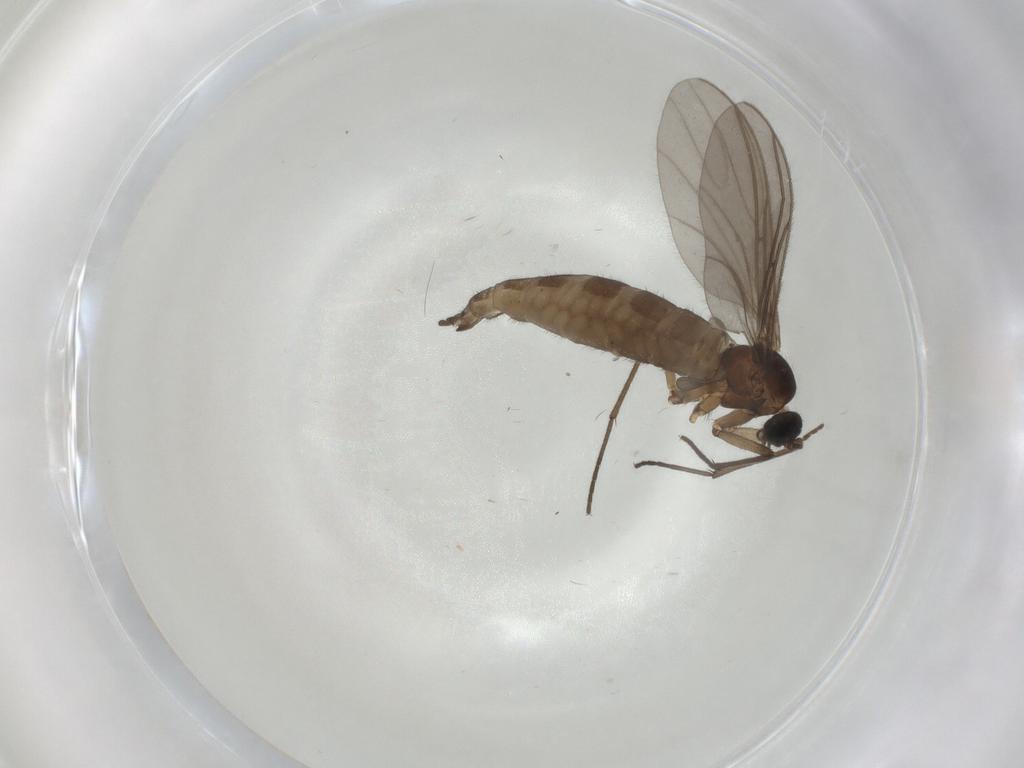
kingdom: Animalia
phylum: Arthropoda
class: Insecta
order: Diptera
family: Sciaridae
